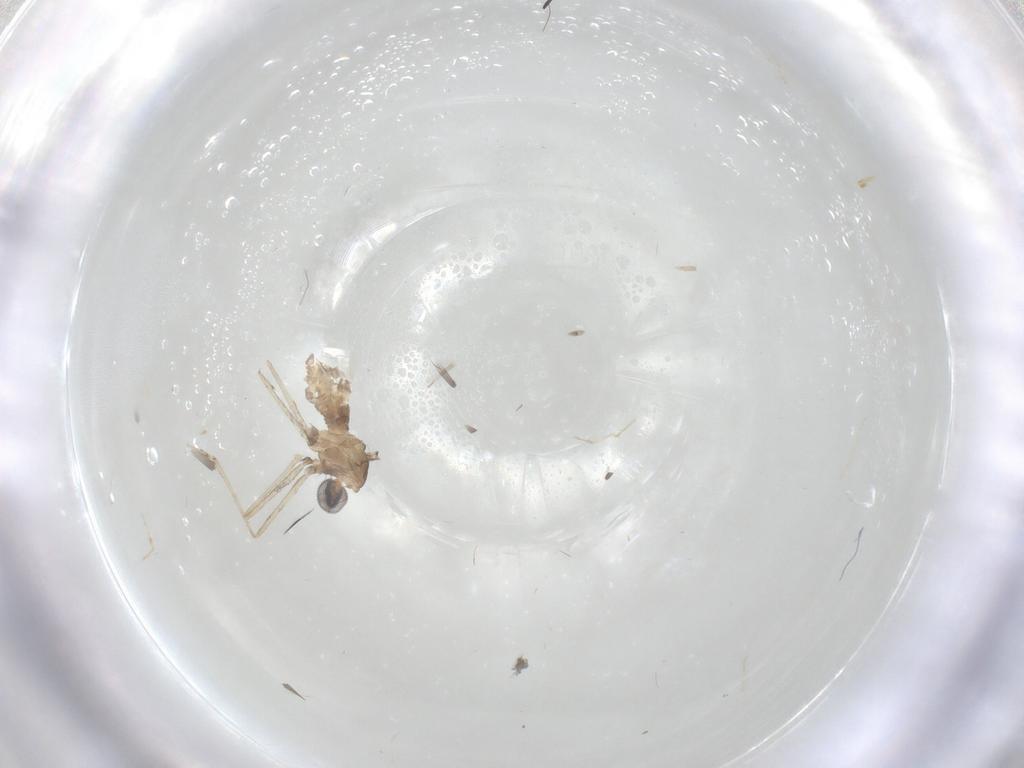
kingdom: Animalia
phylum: Arthropoda
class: Insecta
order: Diptera
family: Cecidomyiidae
